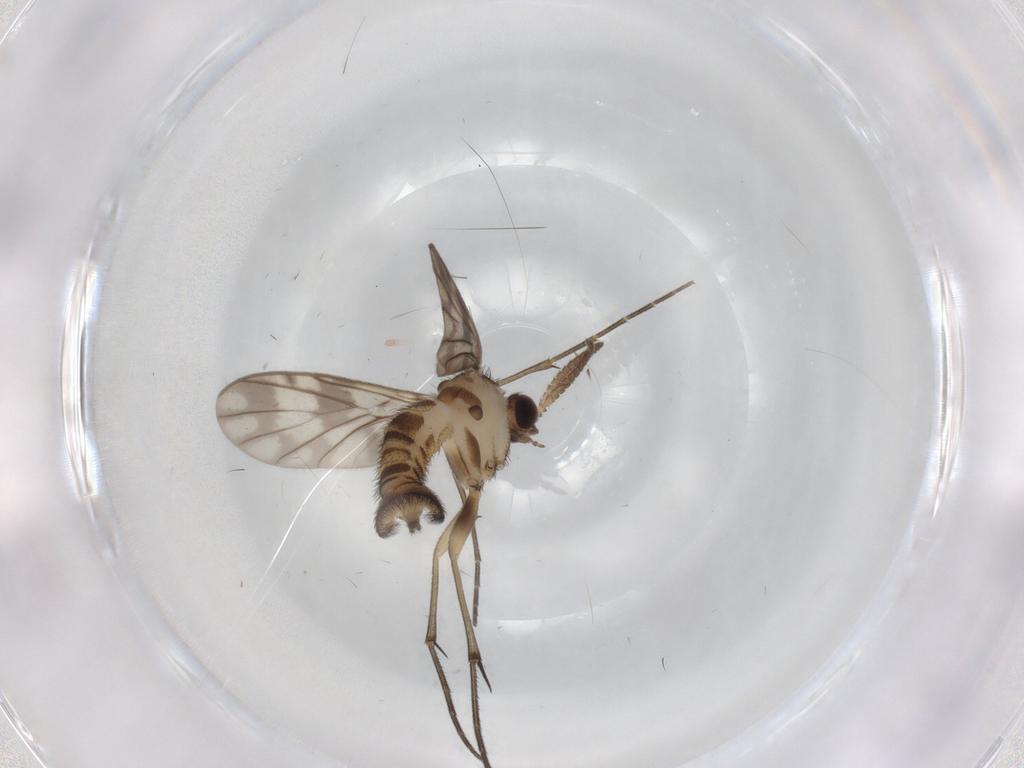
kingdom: Animalia
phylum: Arthropoda
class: Insecta
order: Diptera
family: Keroplatidae
